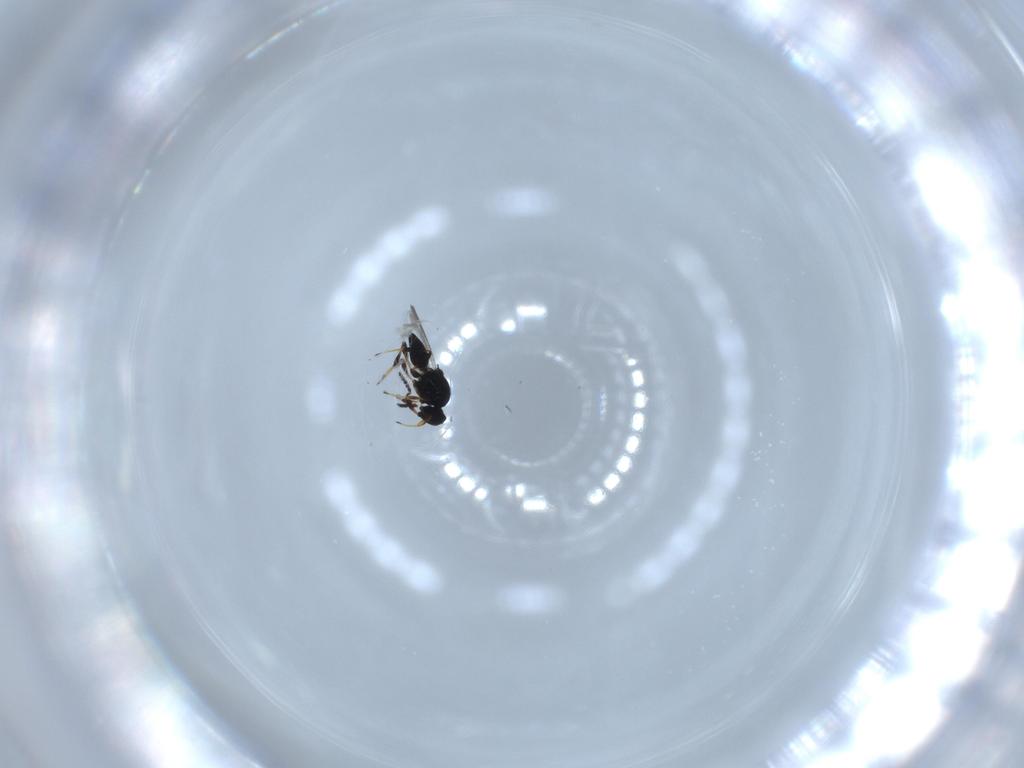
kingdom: Animalia
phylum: Arthropoda
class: Insecta
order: Hymenoptera
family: Platygastridae
